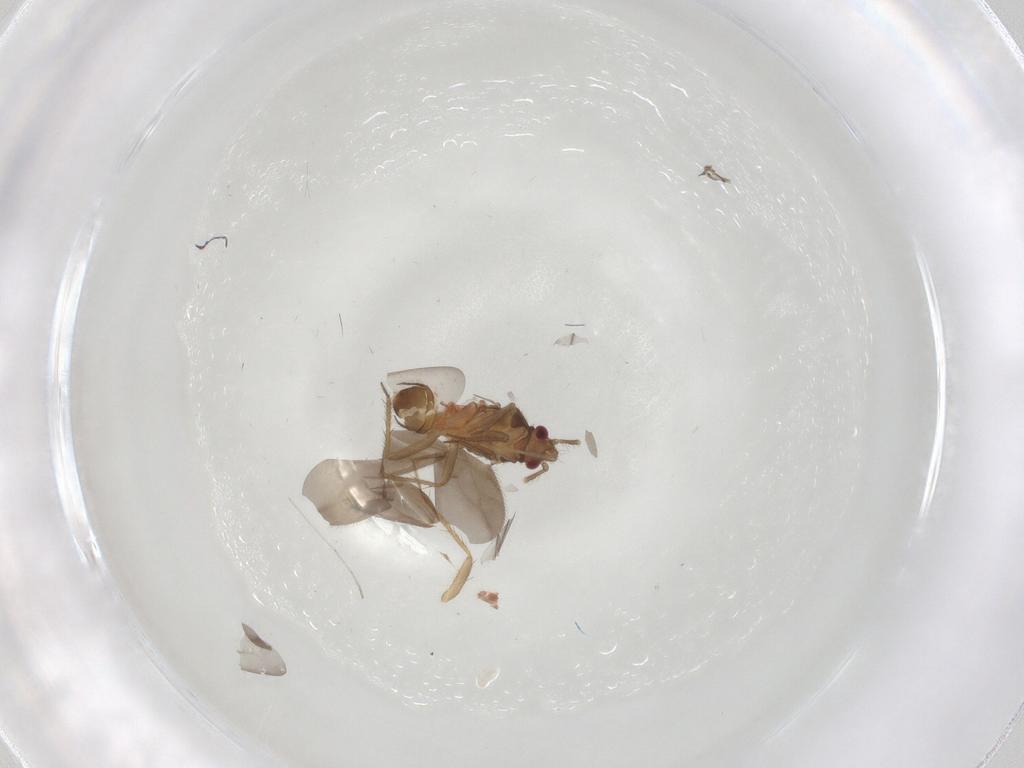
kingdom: Animalia
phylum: Arthropoda
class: Insecta
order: Hemiptera
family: Ceratocombidae
